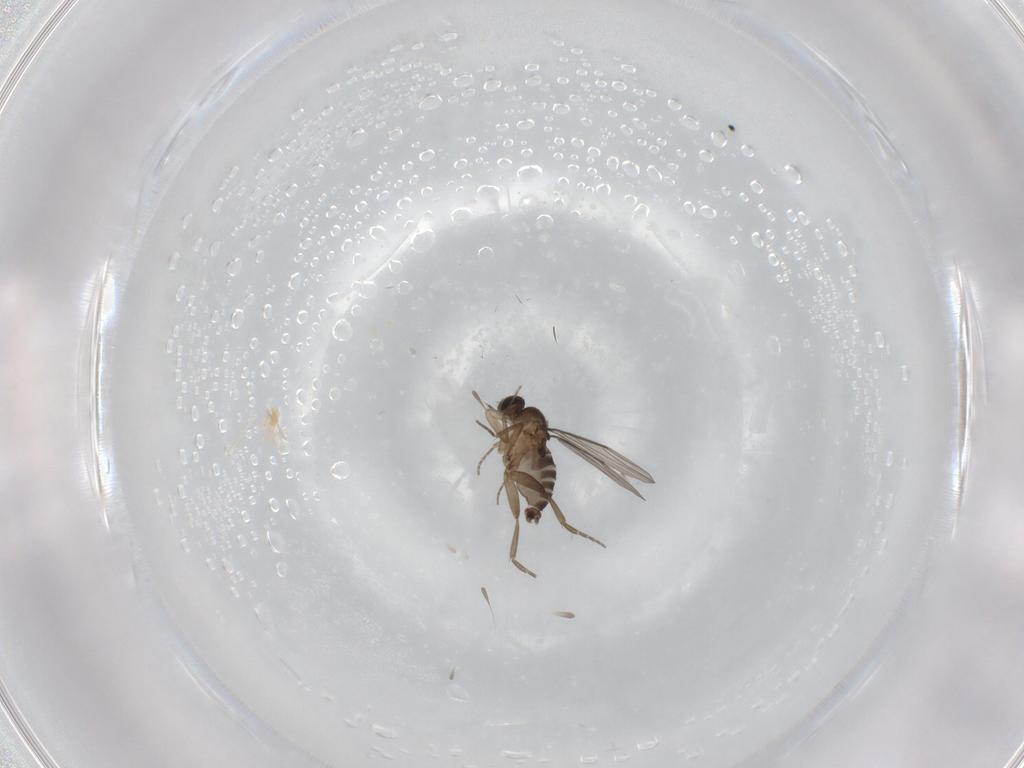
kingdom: Animalia
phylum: Arthropoda
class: Insecta
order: Diptera
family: Phoridae
